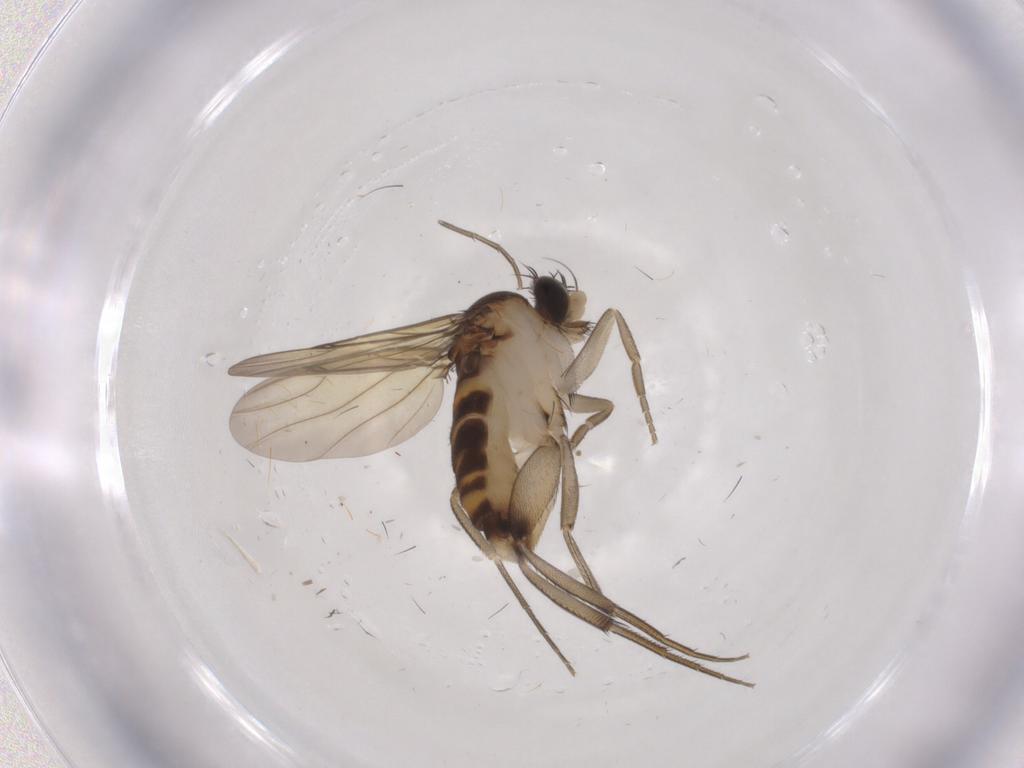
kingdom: Animalia
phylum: Arthropoda
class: Insecta
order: Diptera
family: Phoridae
